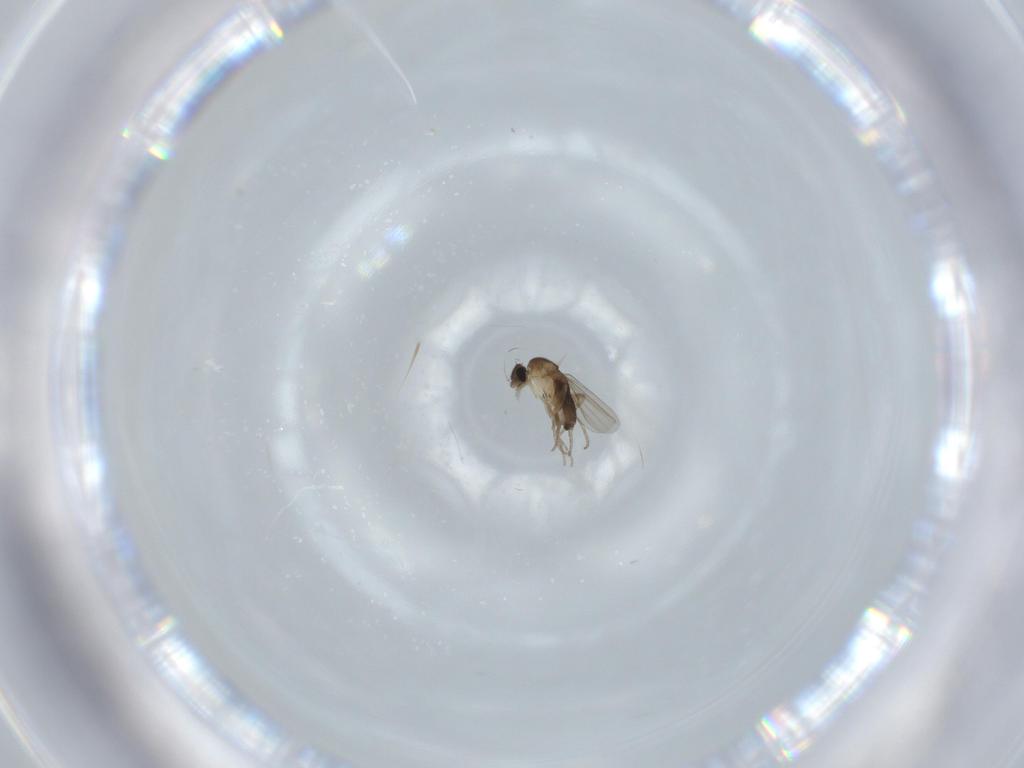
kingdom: Animalia
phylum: Arthropoda
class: Insecta
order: Diptera
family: Phoridae
